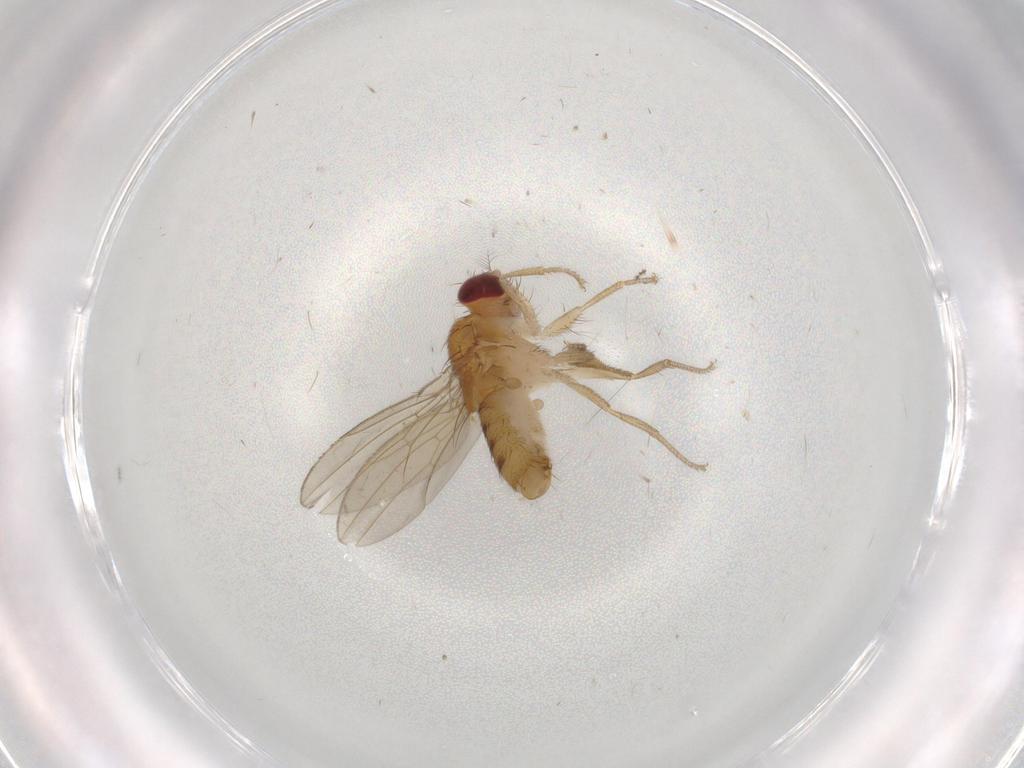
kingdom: Animalia
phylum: Arthropoda
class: Insecta
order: Diptera
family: Drosophilidae
